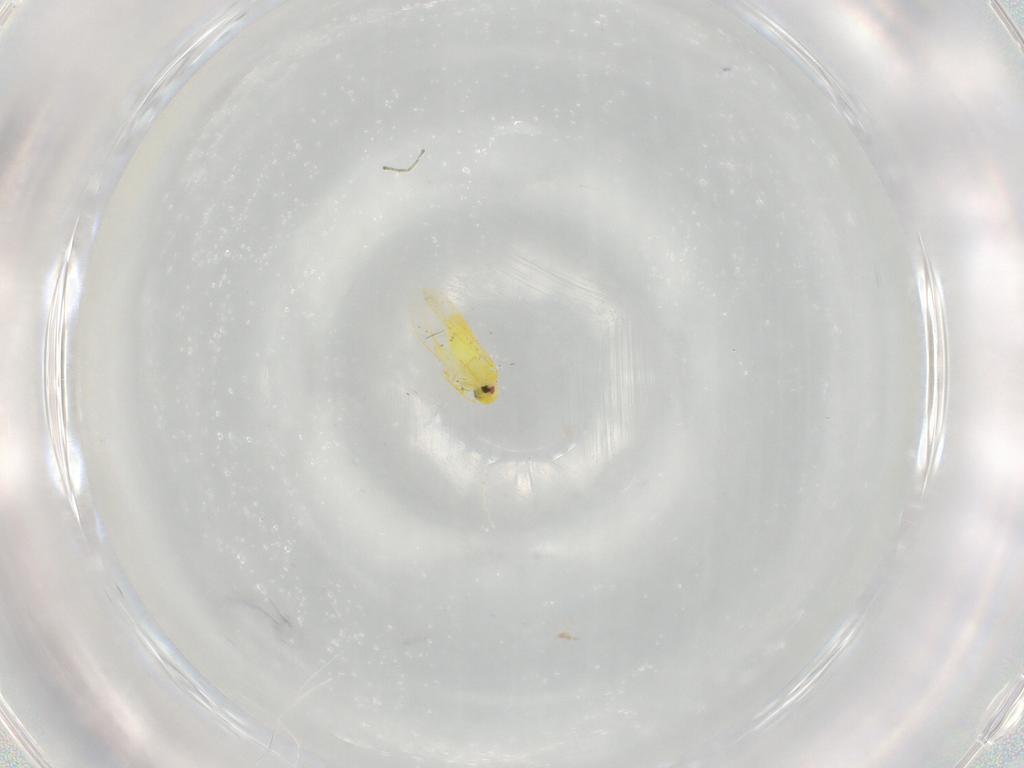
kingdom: Animalia
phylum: Arthropoda
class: Insecta
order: Hemiptera
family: Aleyrodidae
